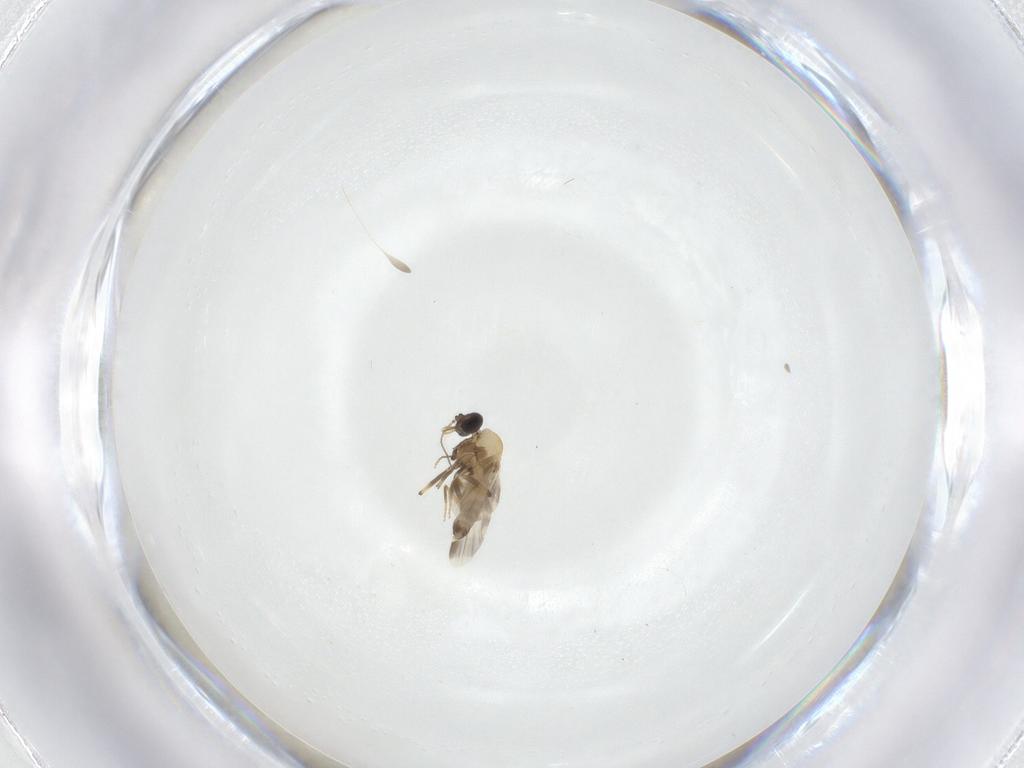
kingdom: Animalia
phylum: Arthropoda
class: Insecta
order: Diptera
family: Ceratopogonidae
